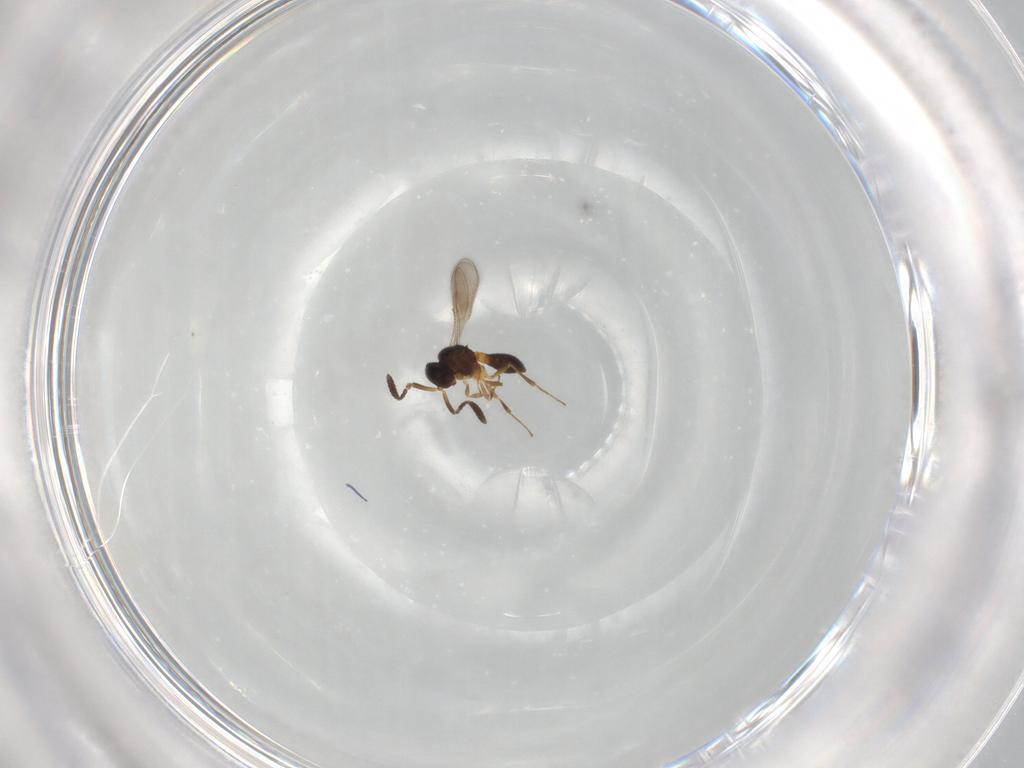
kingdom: Animalia
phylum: Arthropoda
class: Insecta
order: Hymenoptera
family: Scelionidae
